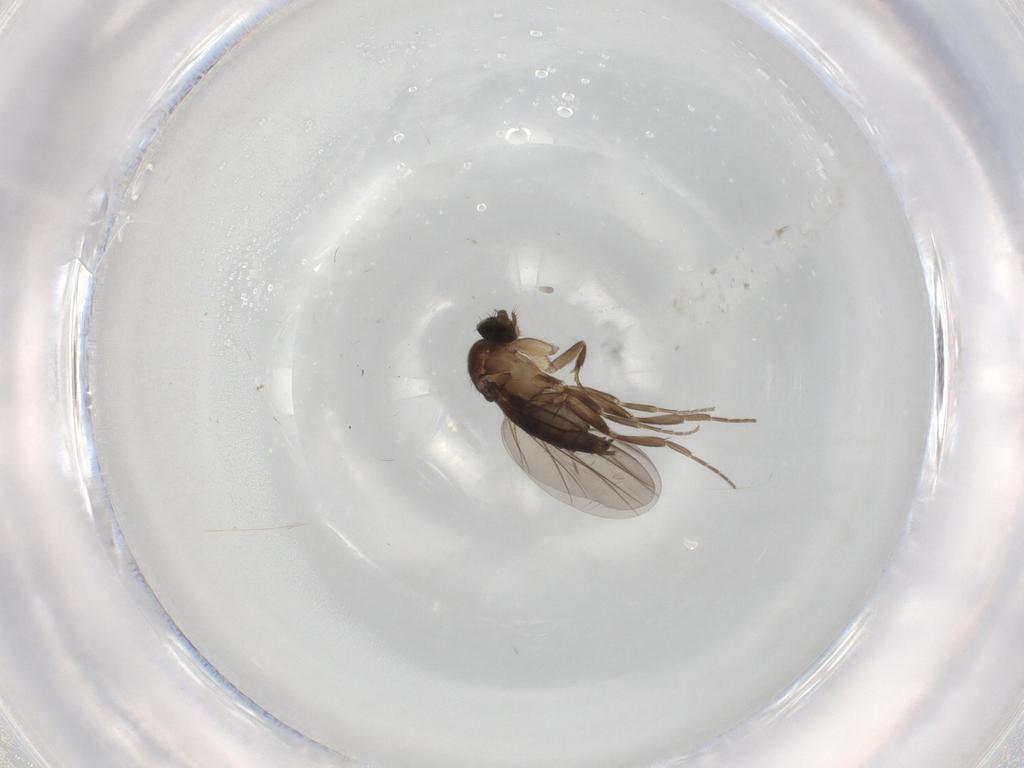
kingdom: Animalia
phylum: Arthropoda
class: Insecta
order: Diptera
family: Phoridae
